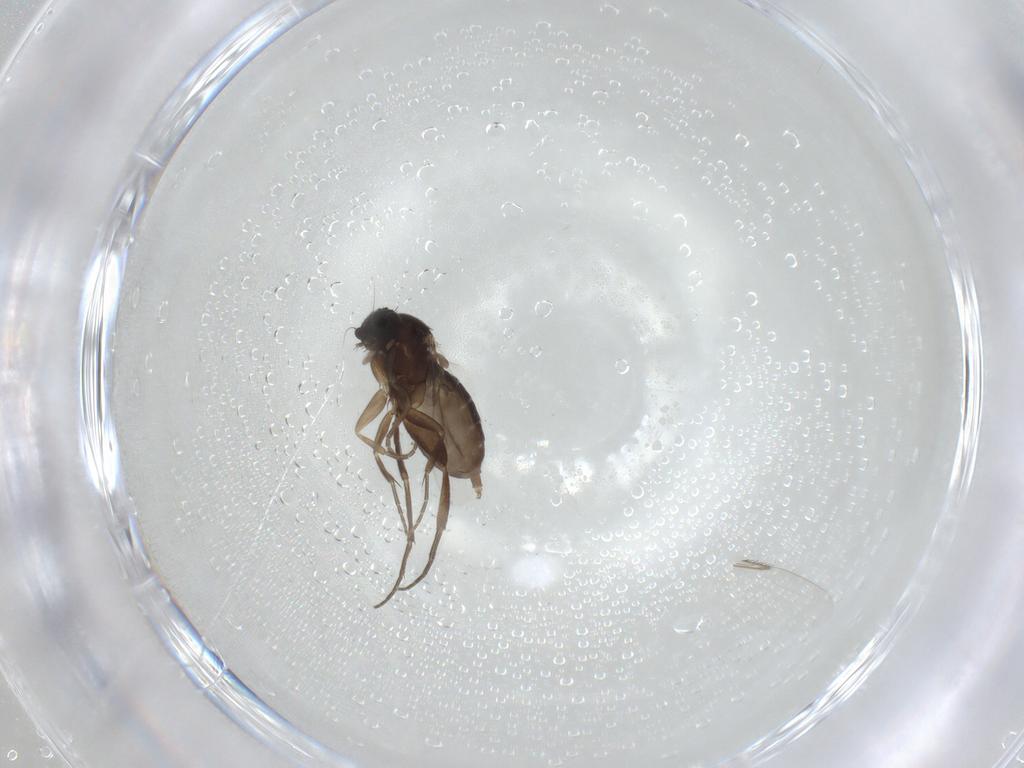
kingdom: Animalia
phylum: Arthropoda
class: Insecta
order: Diptera
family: Phoridae
